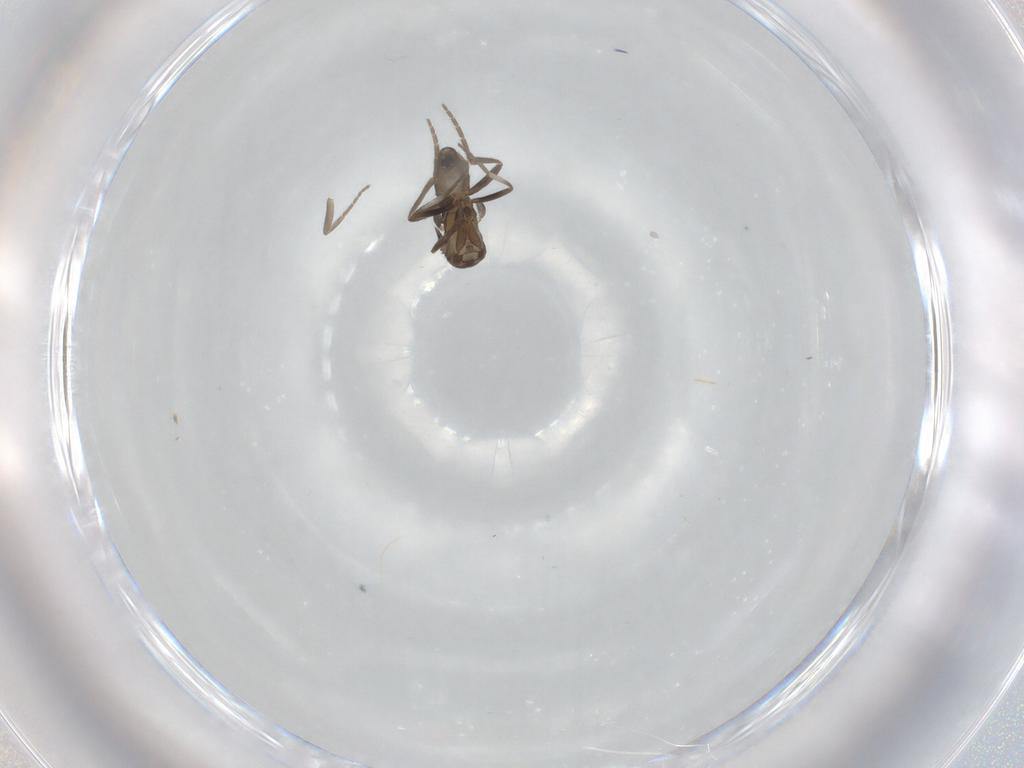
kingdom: Animalia
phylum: Arthropoda
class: Insecta
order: Diptera
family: Phoridae
